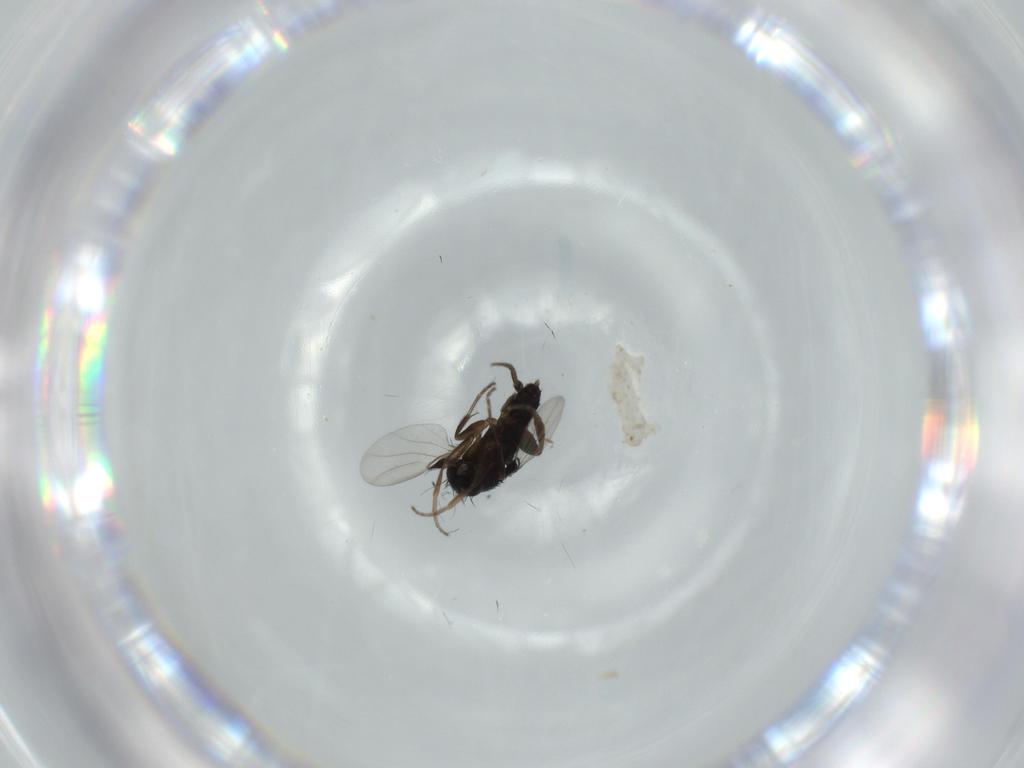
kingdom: Animalia
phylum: Arthropoda
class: Insecta
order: Diptera
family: Phoridae
